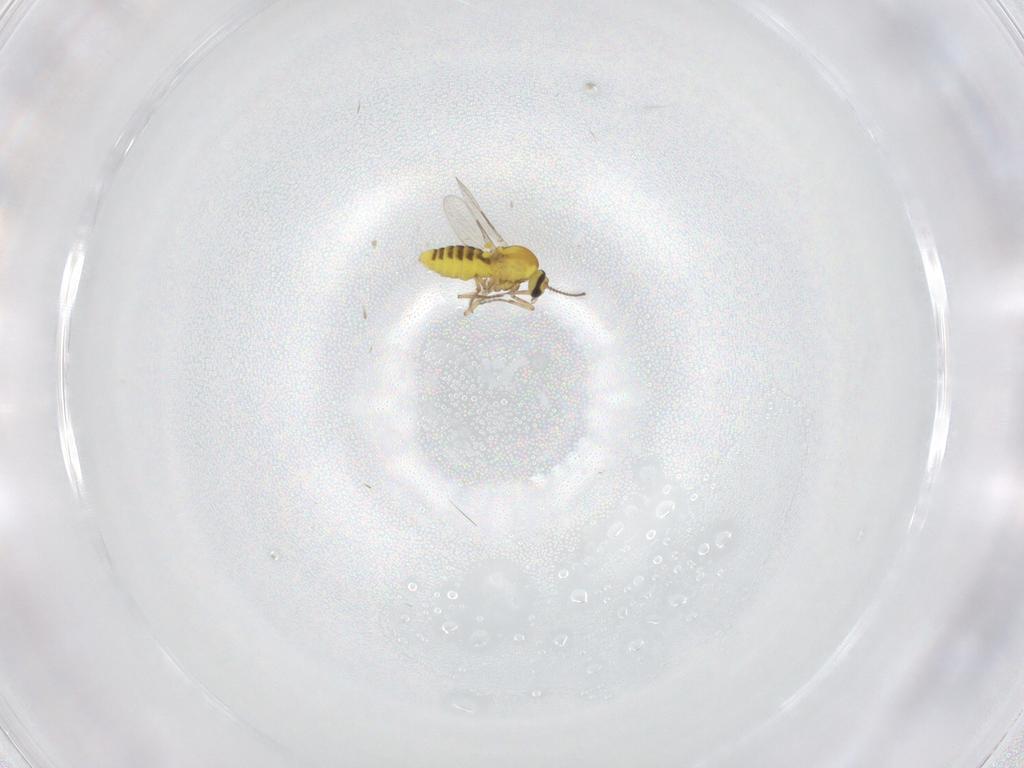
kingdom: Animalia
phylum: Arthropoda
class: Insecta
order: Diptera
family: Ceratopogonidae
